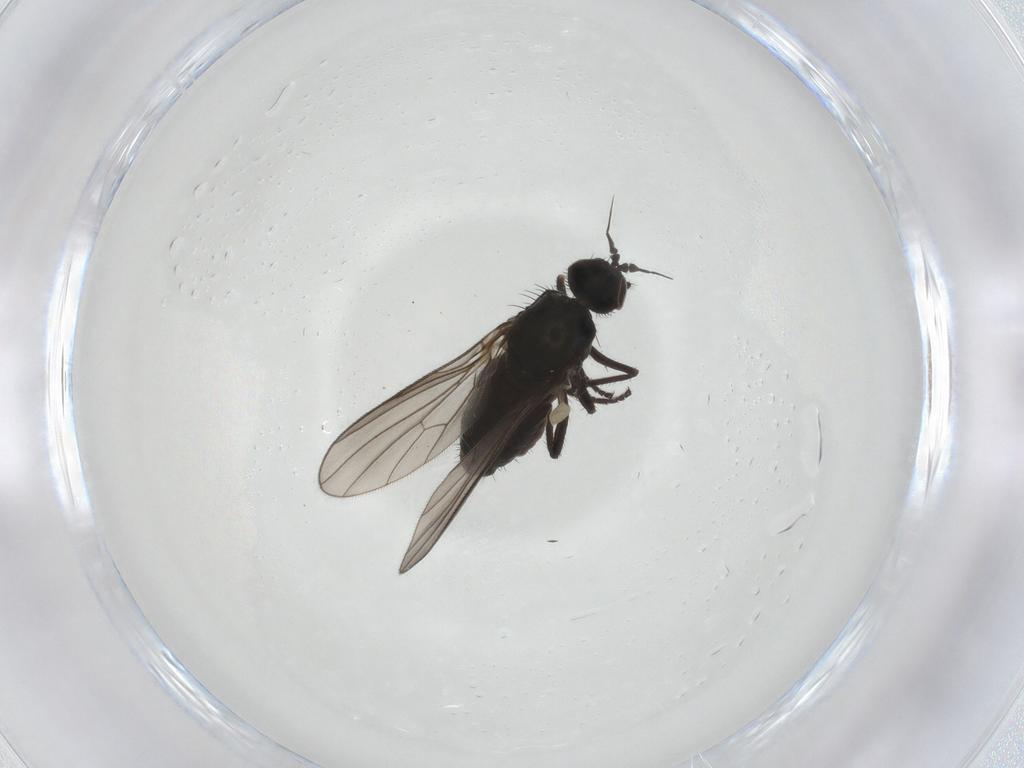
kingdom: Animalia
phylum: Arthropoda
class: Insecta
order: Diptera
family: Dolichopodidae
